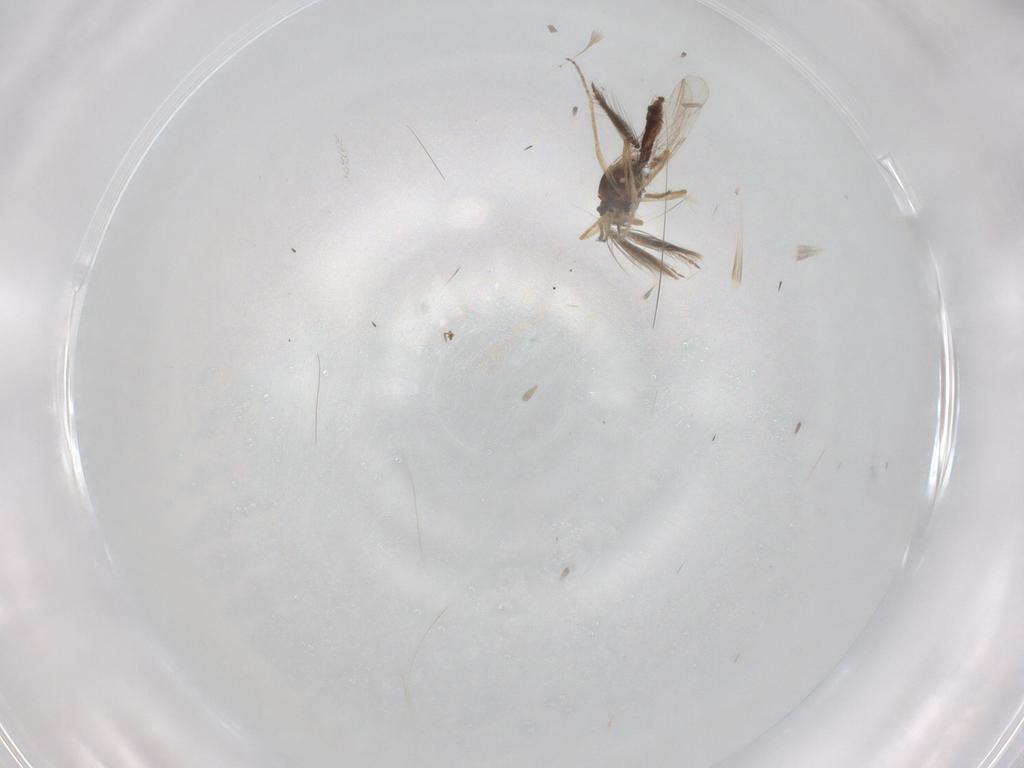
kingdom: Animalia
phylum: Arthropoda
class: Insecta
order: Diptera
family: Ceratopogonidae
